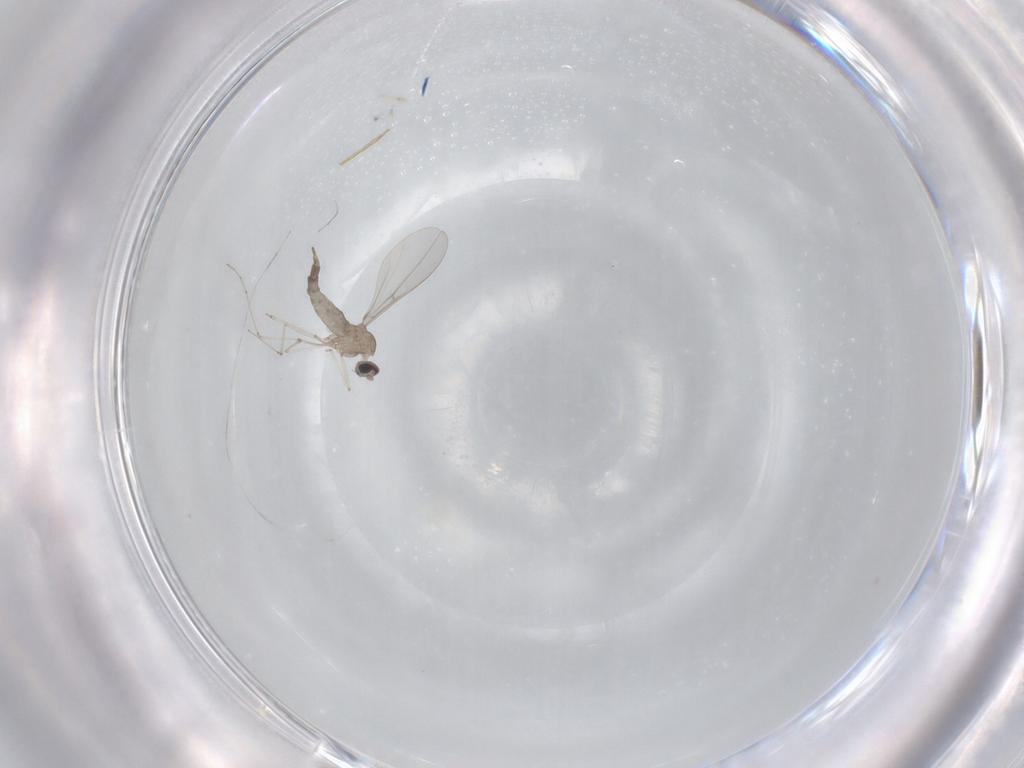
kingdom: Animalia
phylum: Arthropoda
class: Insecta
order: Diptera
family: Cecidomyiidae
